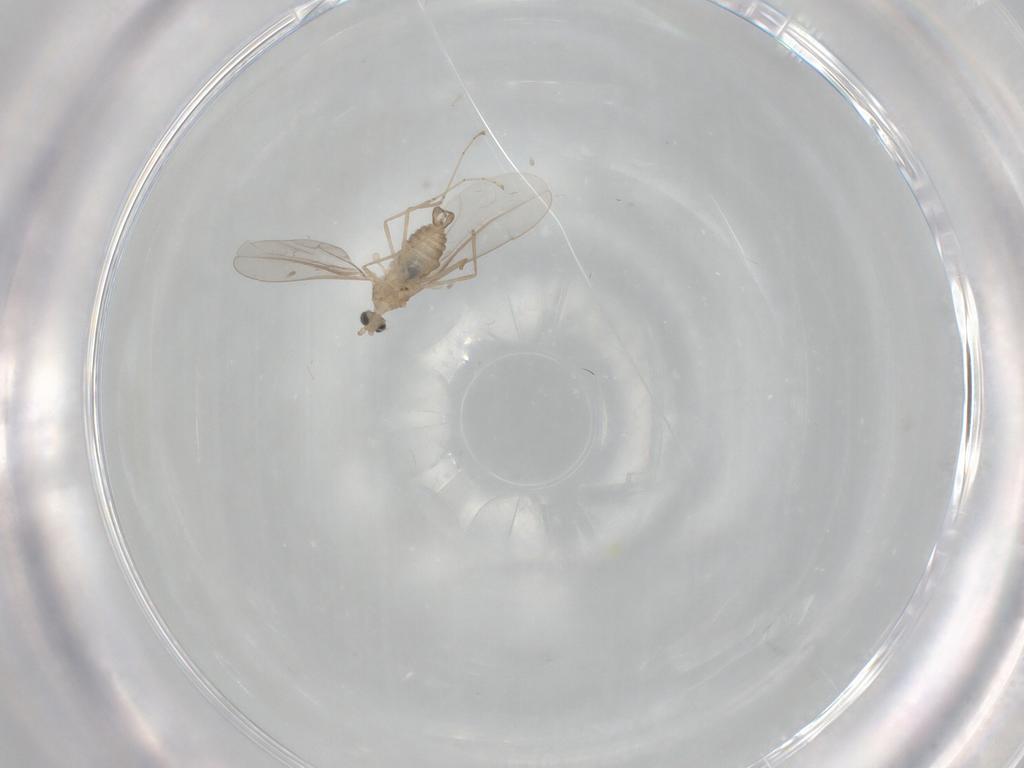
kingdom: Animalia
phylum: Arthropoda
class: Insecta
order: Diptera
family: Cecidomyiidae
